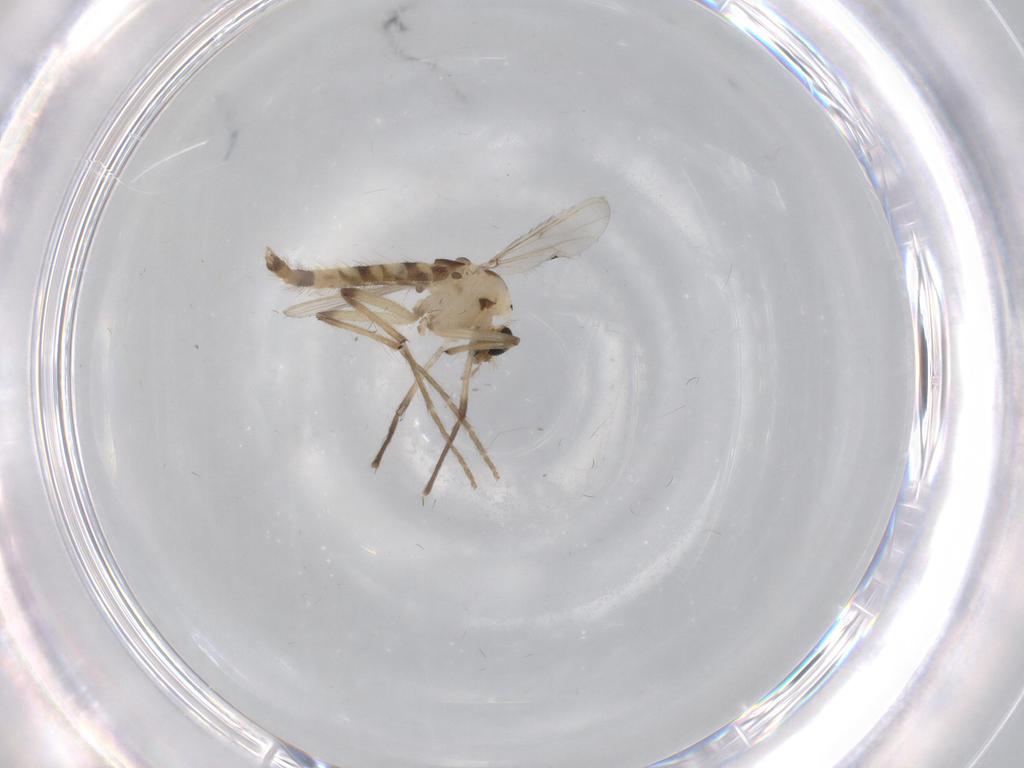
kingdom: Animalia
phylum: Arthropoda
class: Insecta
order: Diptera
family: Chironomidae
